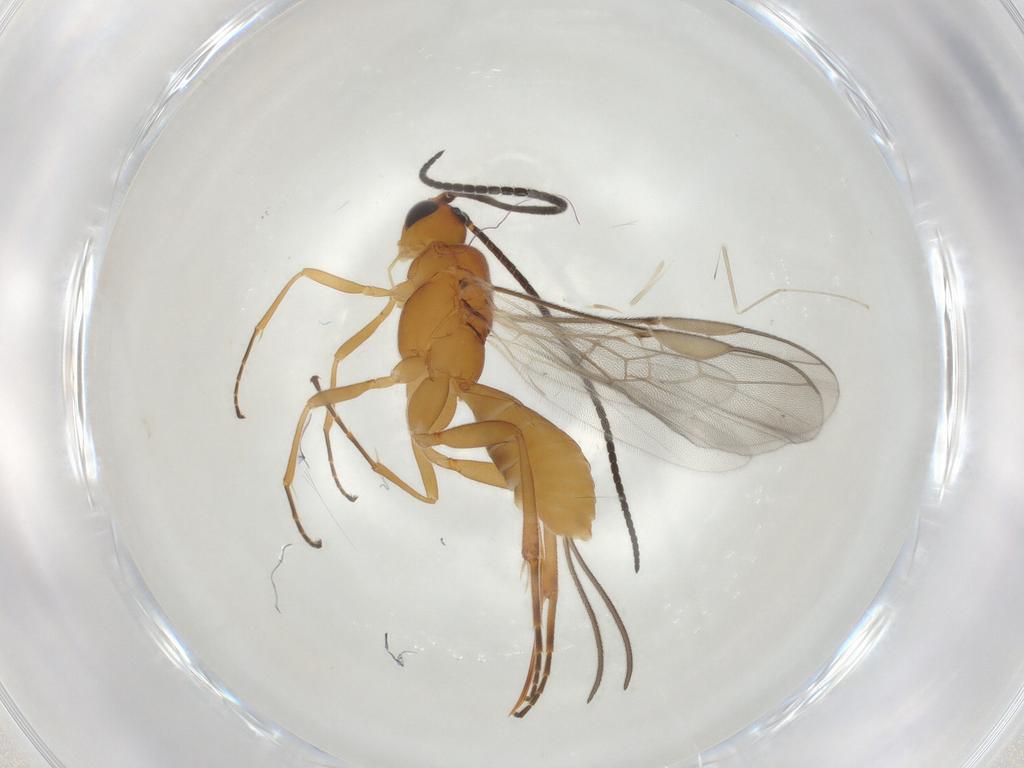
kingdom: Animalia
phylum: Arthropoda
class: Insecta
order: Hymenoptera
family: Braconidae
